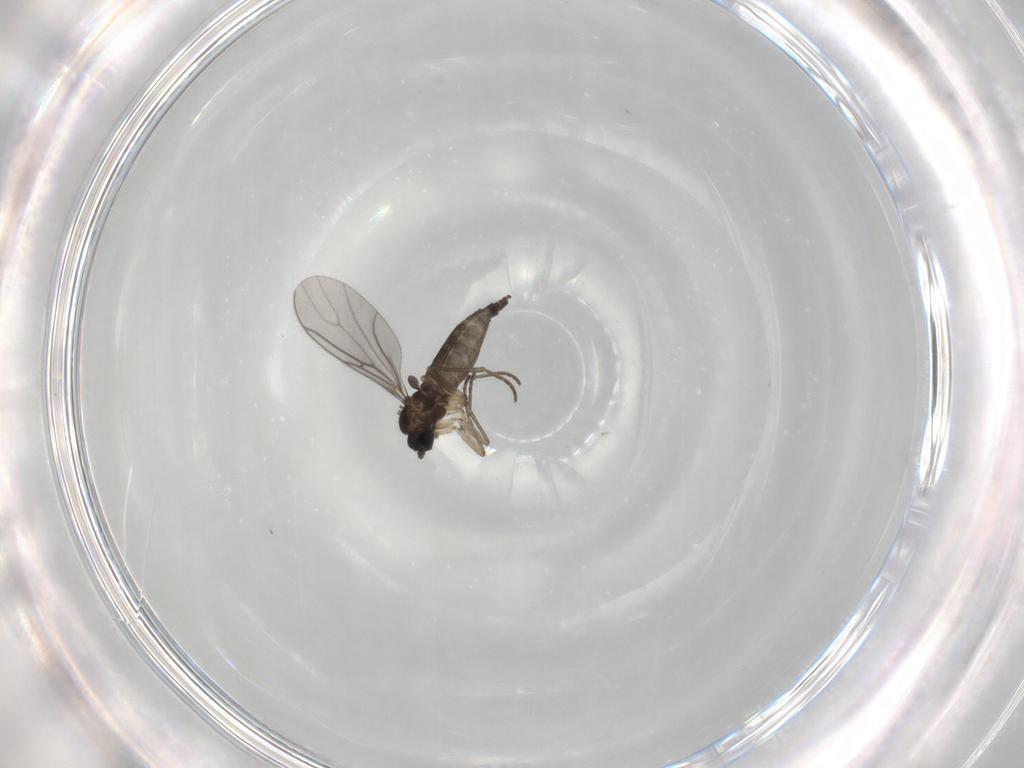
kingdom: Animalia
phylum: Arthropoda
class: Insecta
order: Diptera
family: Sciaridae
